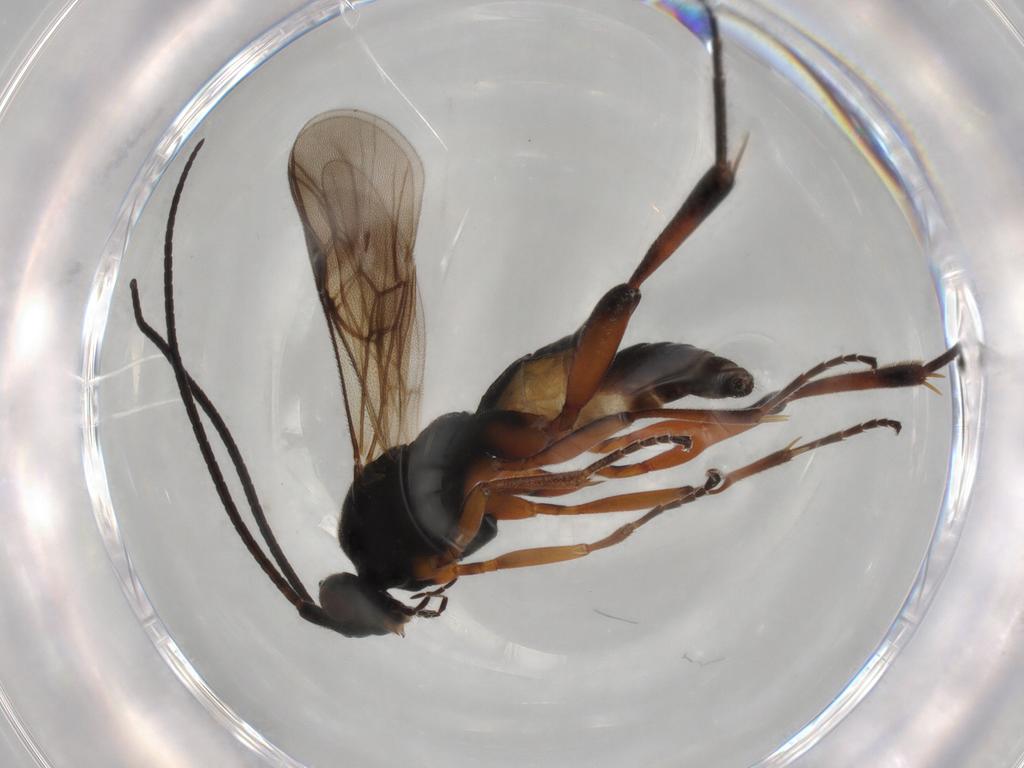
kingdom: Animalia
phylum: Arthropoda
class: Insecta
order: Hymenoptera
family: Braconidae
